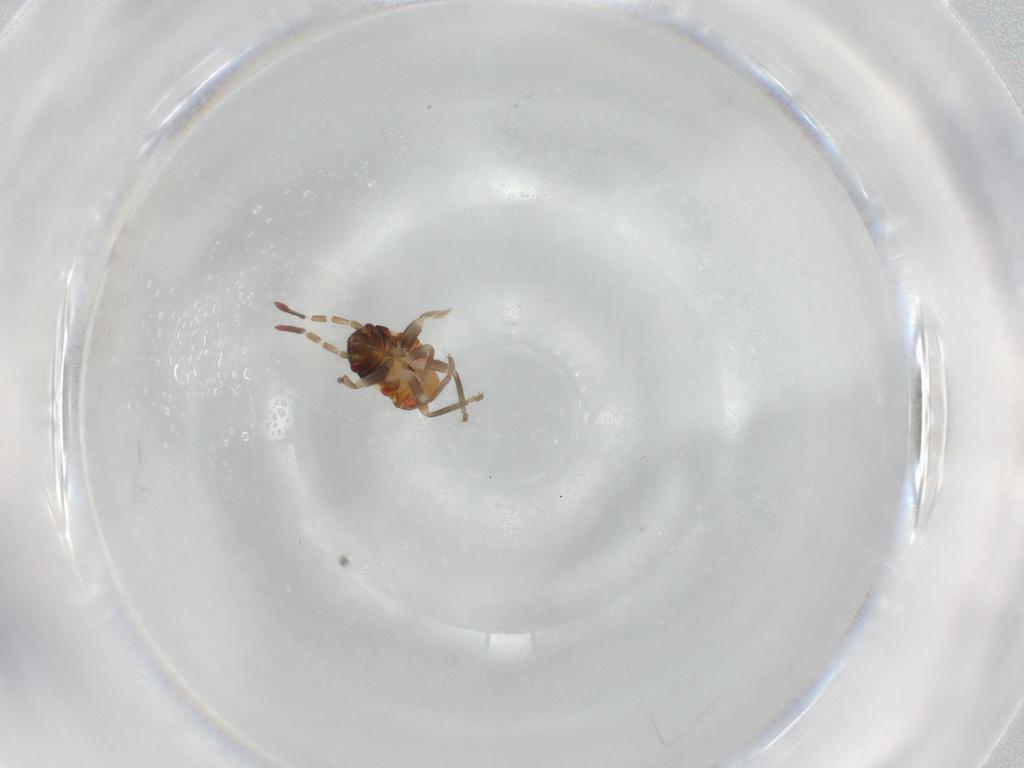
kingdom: Animalia
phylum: Arthropoda
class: Insecta
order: Hemiptera
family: Rhyparochromidae
